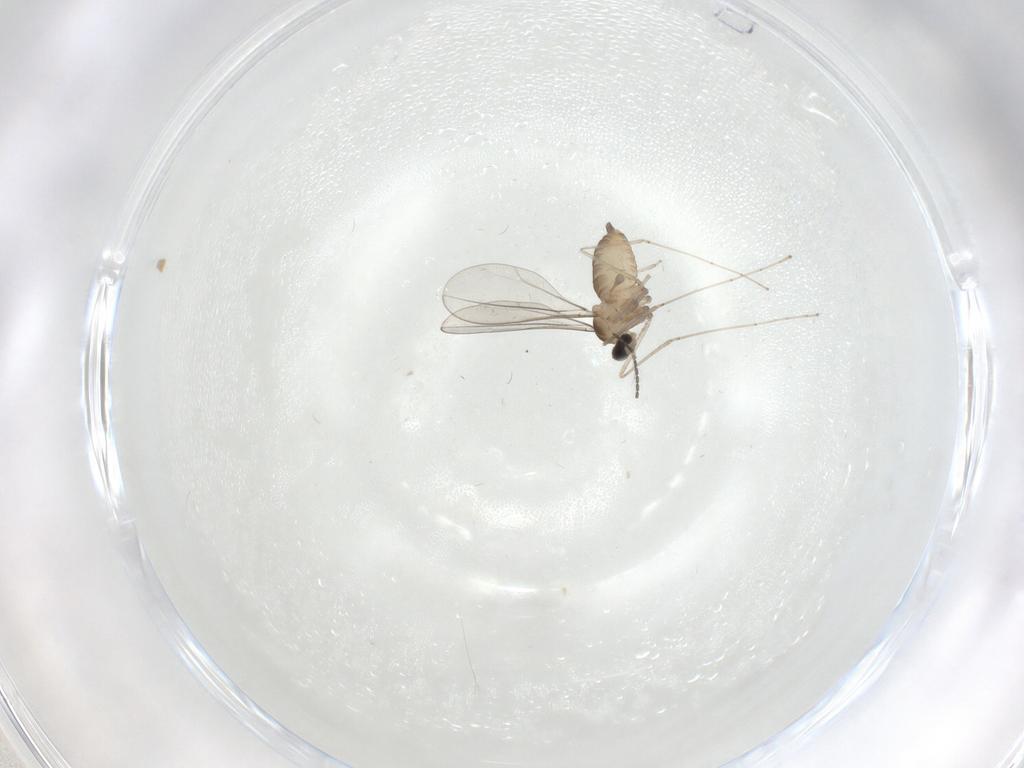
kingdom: Animalia
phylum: Arthropoda
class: Insecta
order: Diptera
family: Cecidomyiidae
